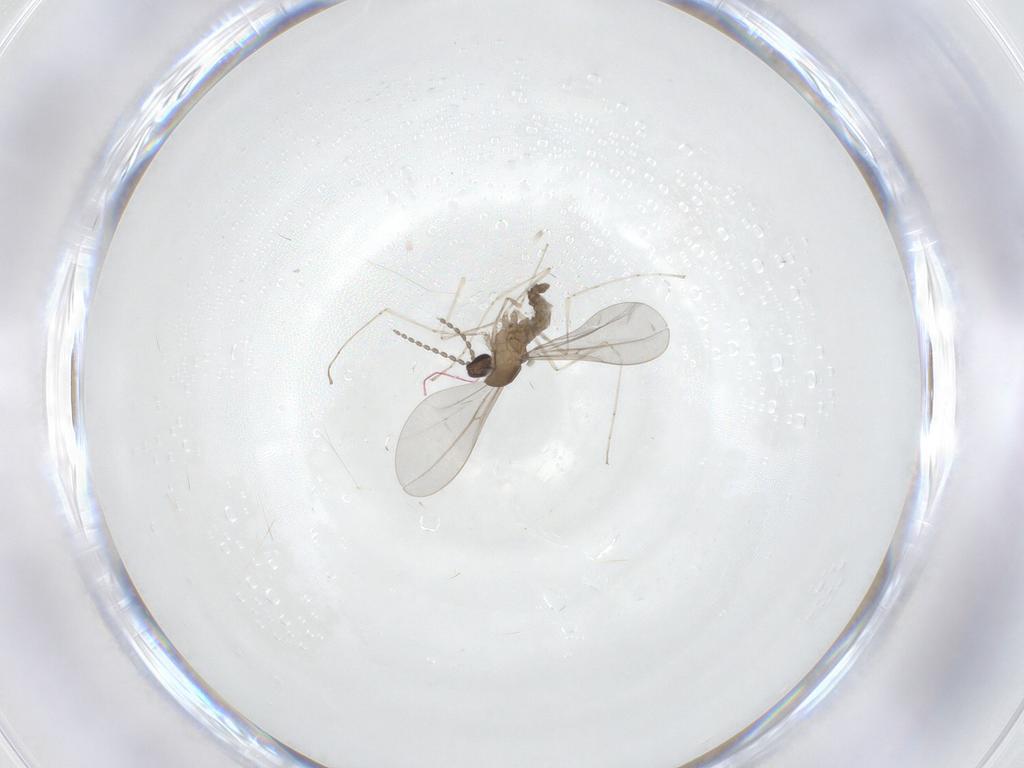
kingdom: Animalia
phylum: Arthropoda
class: Insecta
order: Diptera
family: Cecidomyiidae
